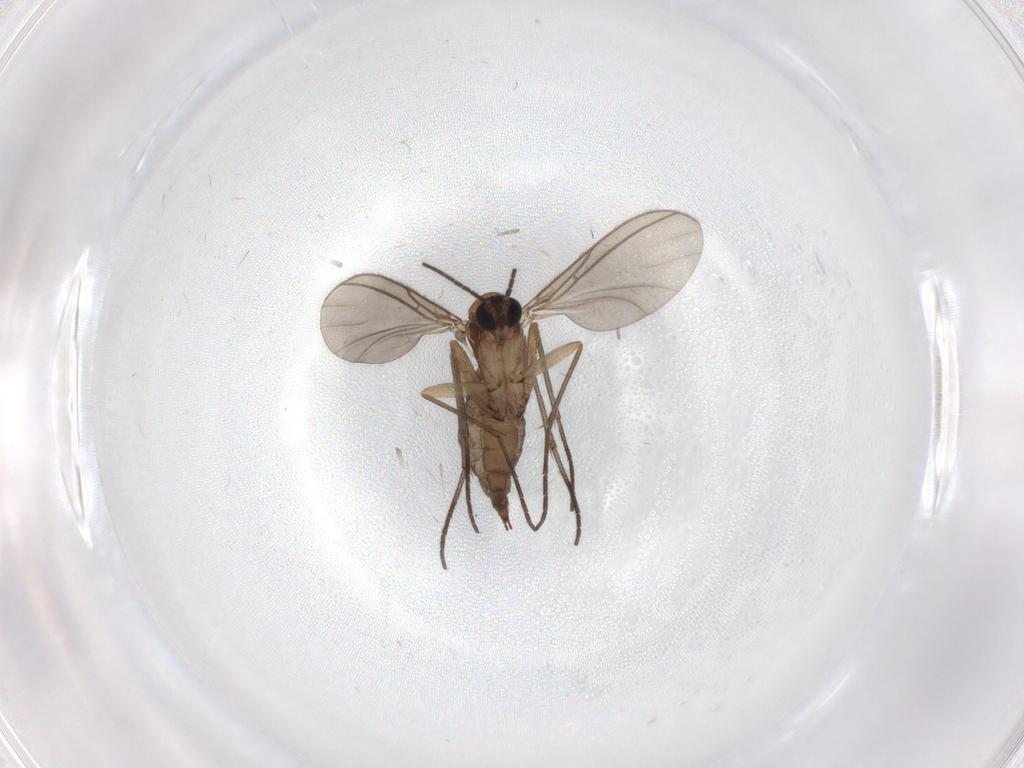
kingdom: Animalia
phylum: Arthropoda
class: Insecta
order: Diptera
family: Sciaridae
